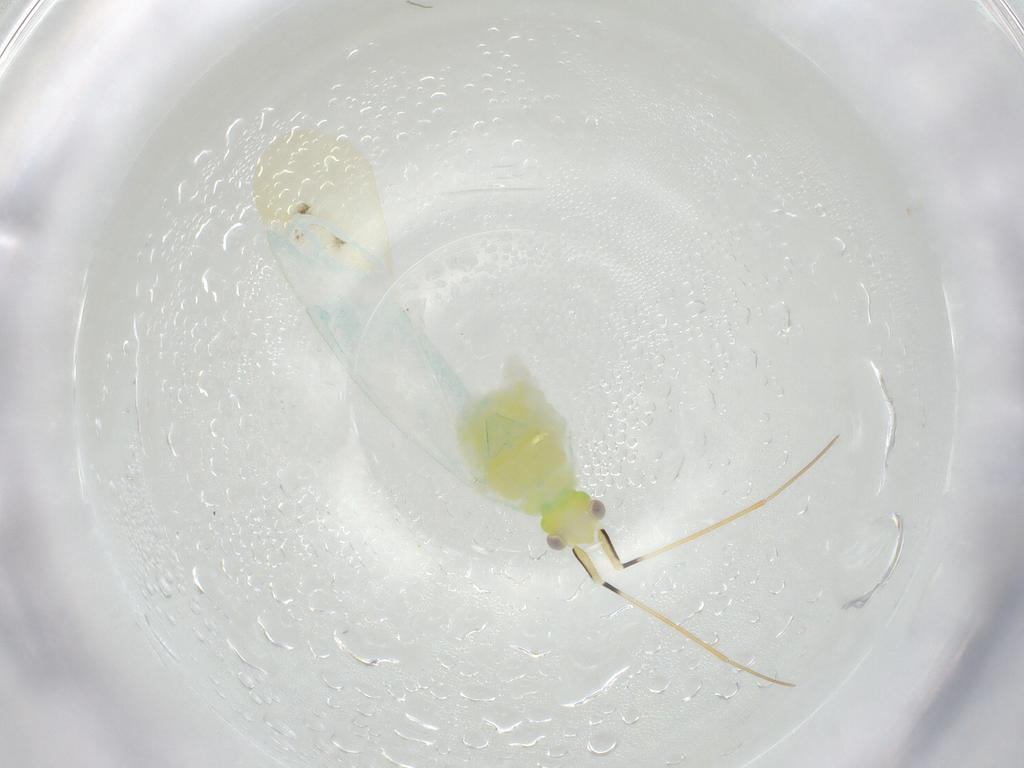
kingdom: Animalia
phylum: Arthropoda
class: Insecta
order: Hemiptera
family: Miridae
